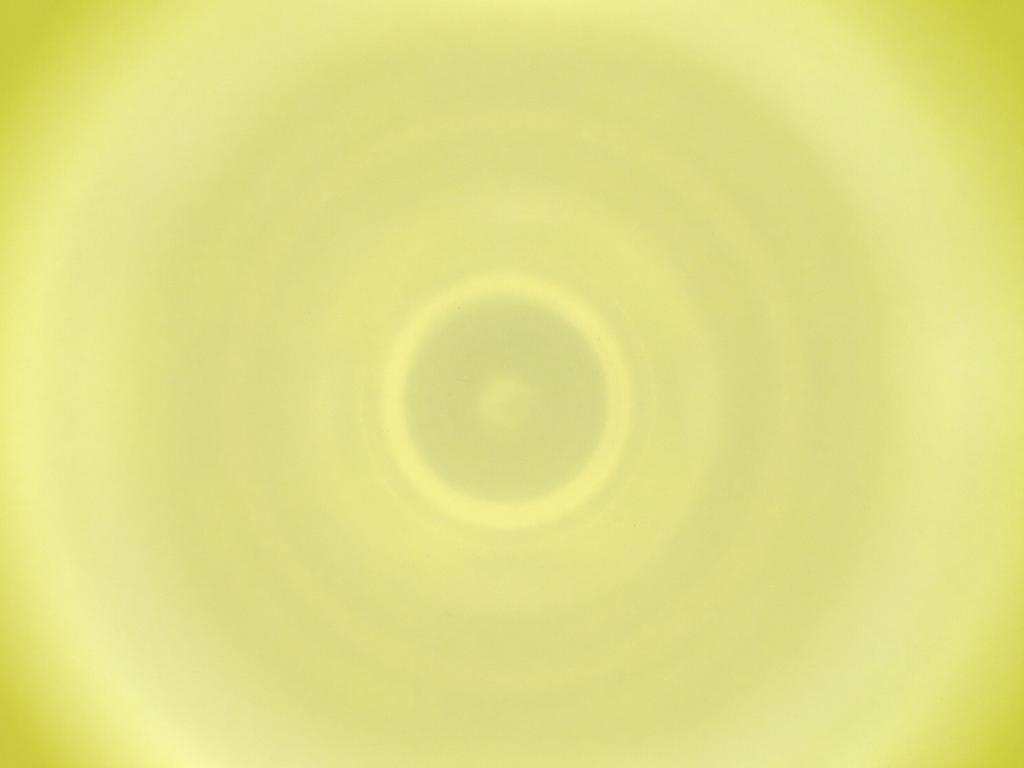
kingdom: Animalia
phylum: Arthropoda
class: Insecta
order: Diptera
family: Cecidomyiidae
